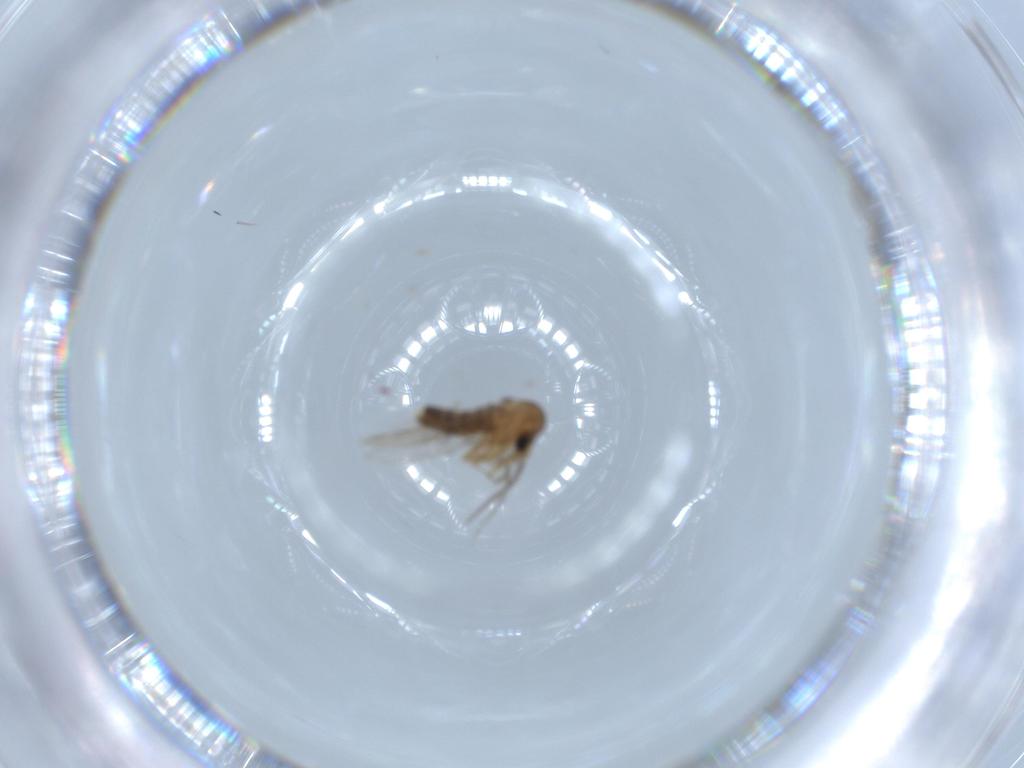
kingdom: Animalia
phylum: Arthropoda
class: Insecta
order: Diptera
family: Psychodidae
